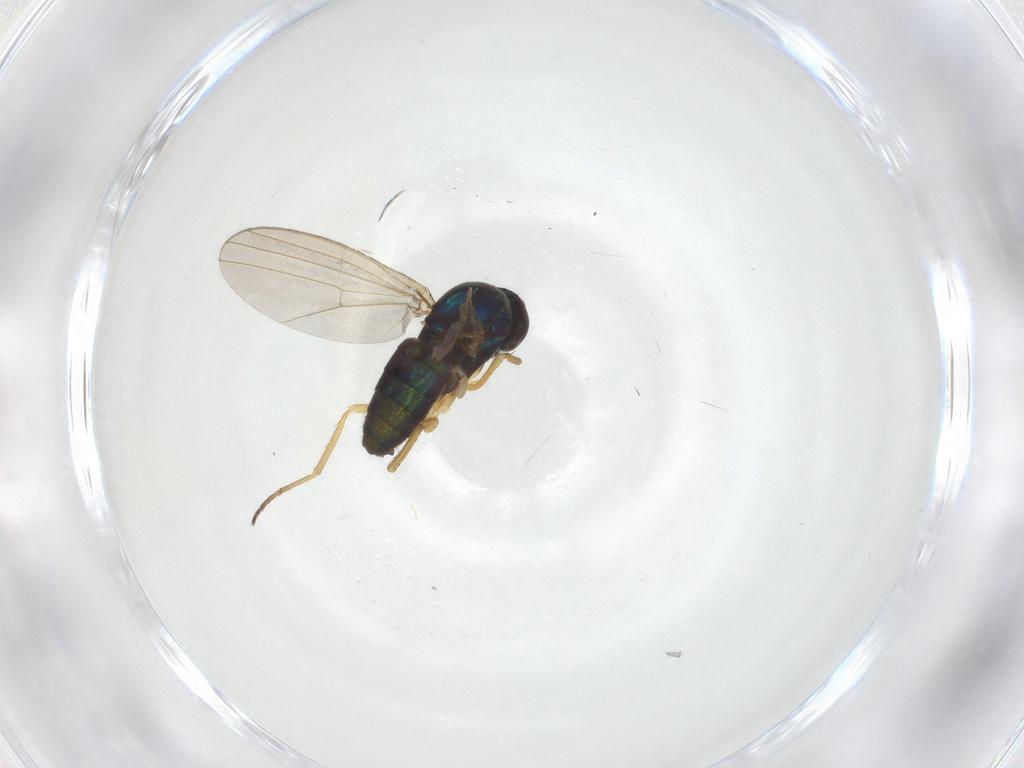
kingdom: Animalia
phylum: Arthropoda
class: Insecta
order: Diptera
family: Dolichopodidae
